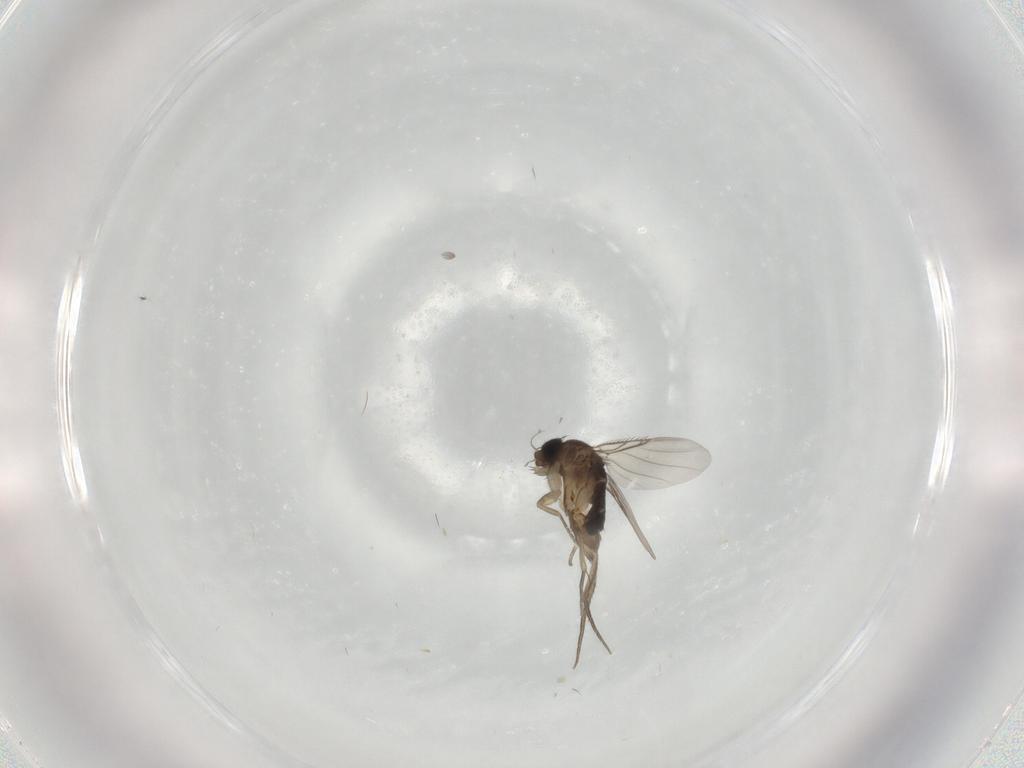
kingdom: Animalia
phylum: Arthropoda
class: Insecta
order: Diptera
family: Phoridae
